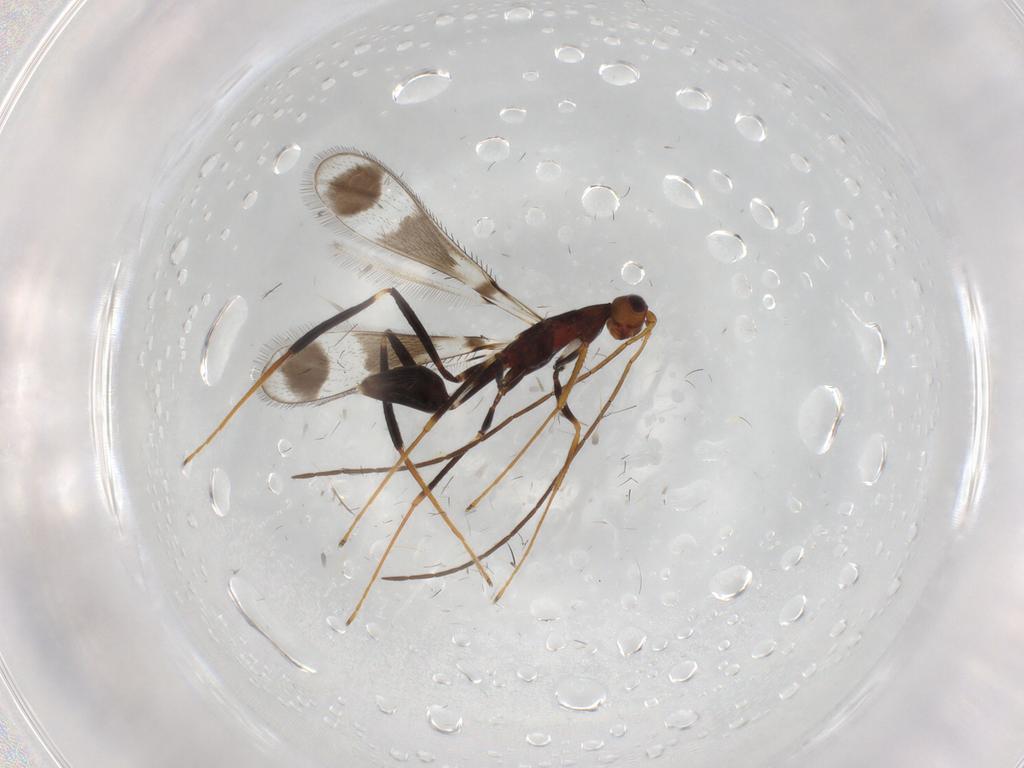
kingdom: Animalia
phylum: Arthropoda
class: Insecta
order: Hymenoptera
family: Mymaridae
